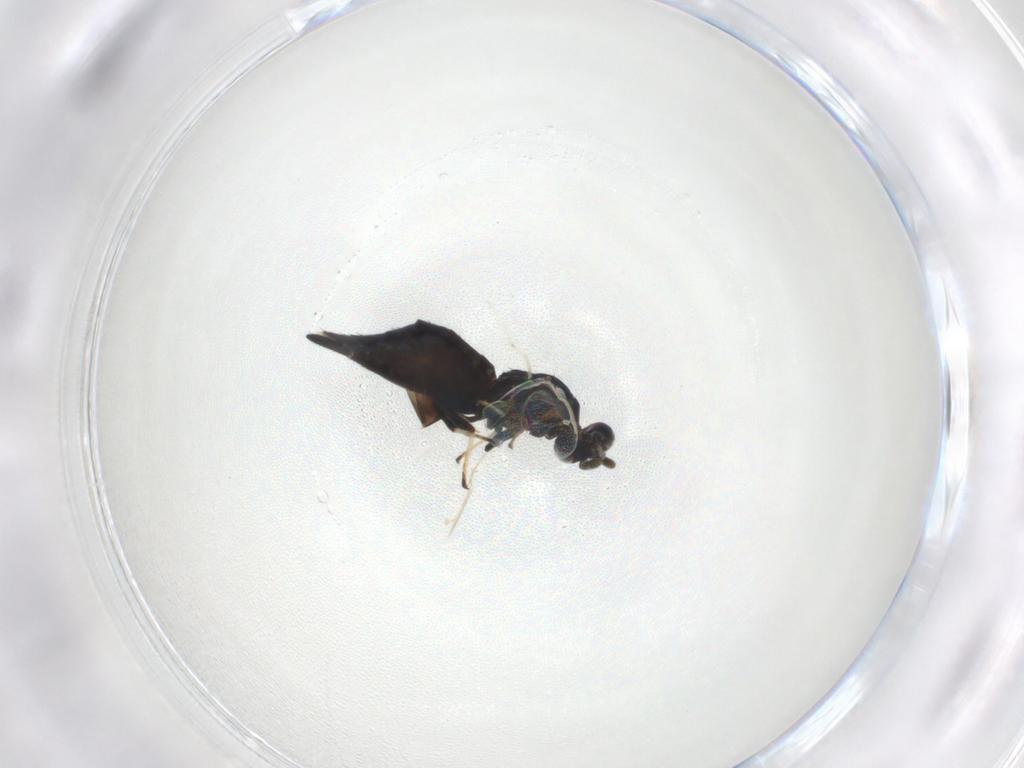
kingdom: Animalia
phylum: Arthropoda
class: Insecta
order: Hymenoptera
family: Pteromalidae
